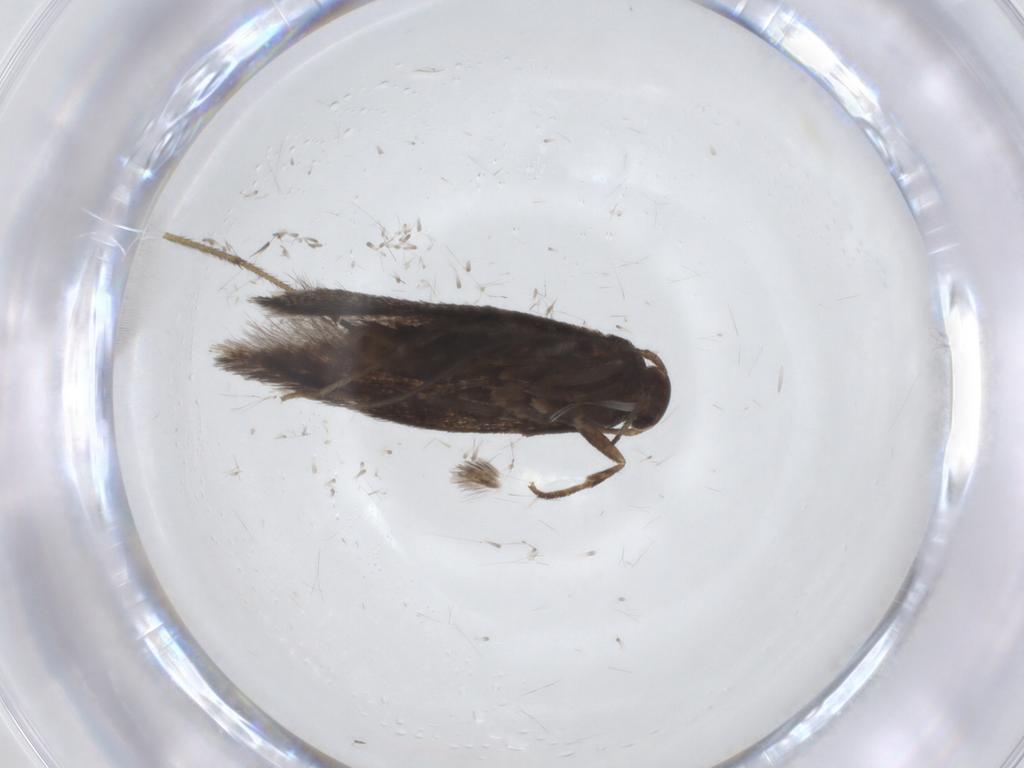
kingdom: Animalia
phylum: Arthropoda
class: Insecta
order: Lepidoptera
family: Elachistidae
